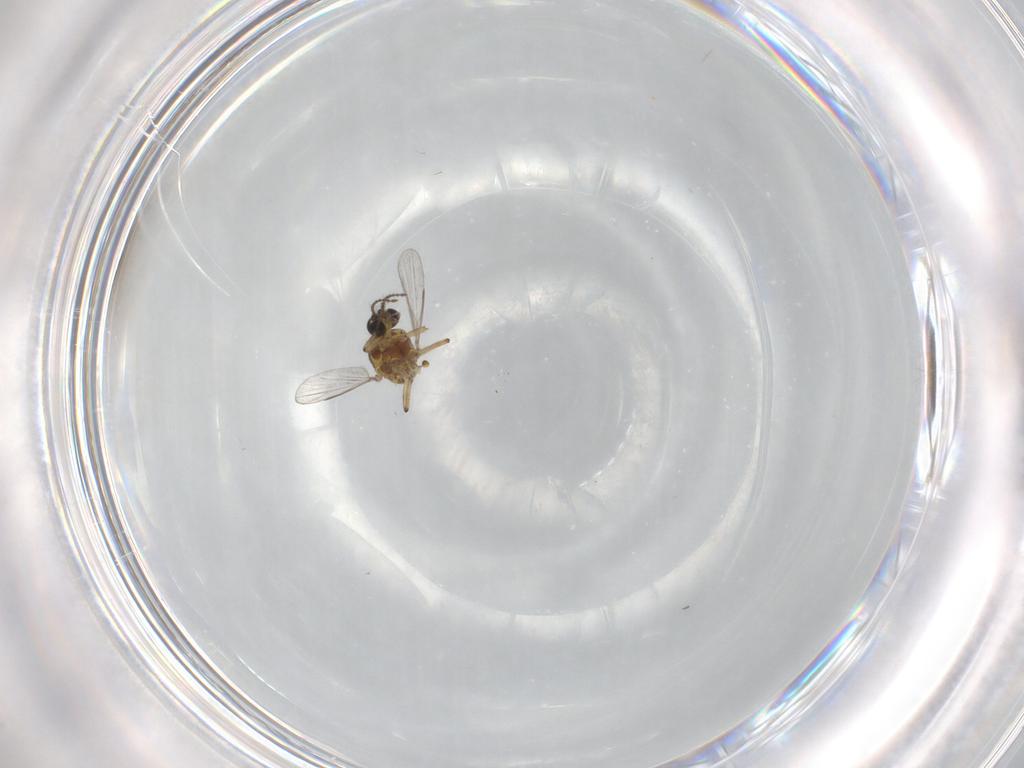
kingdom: Animalia
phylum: Arthropoda
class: Insecta
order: Diptera
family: Ceratopogonidae
